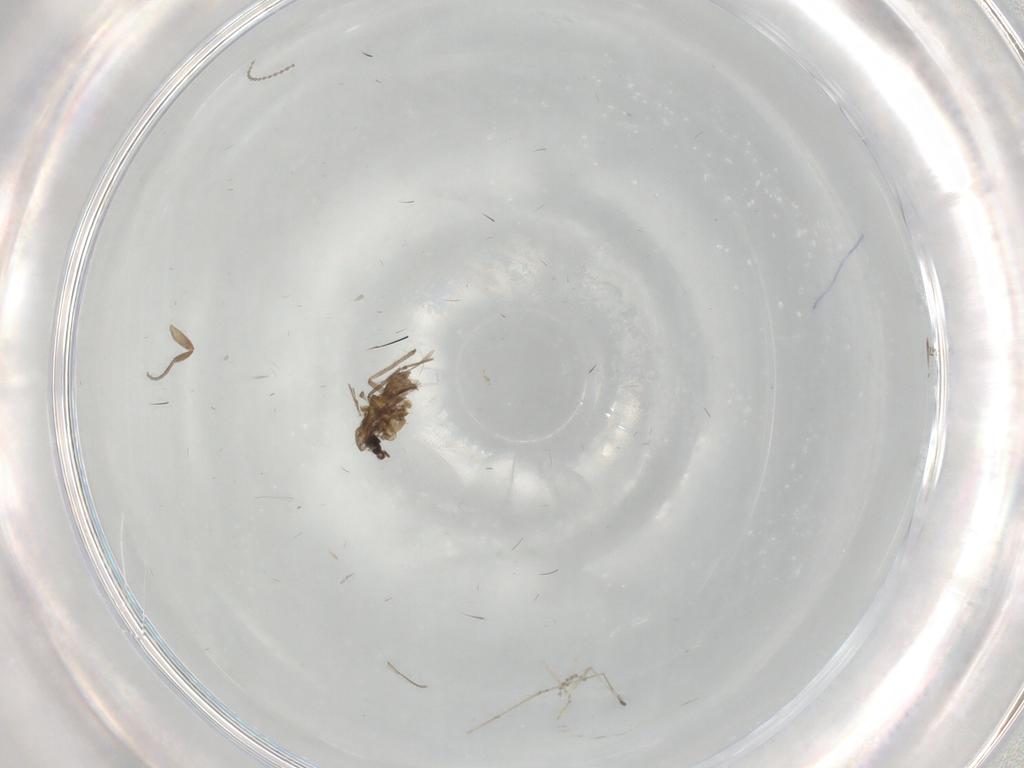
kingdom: Animalia
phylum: Arthropoda
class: Insecta
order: Diptera
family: Chironomidae
